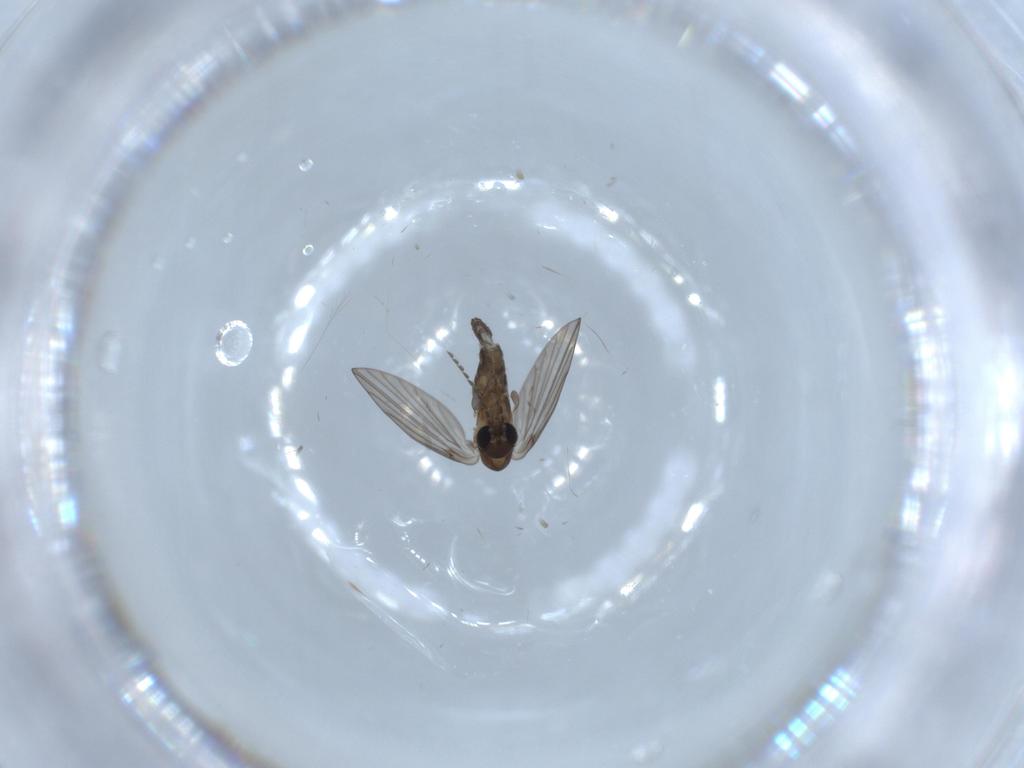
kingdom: Animalia
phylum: Arthropoda
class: Insecta
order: Diptera
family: Psychodidae
